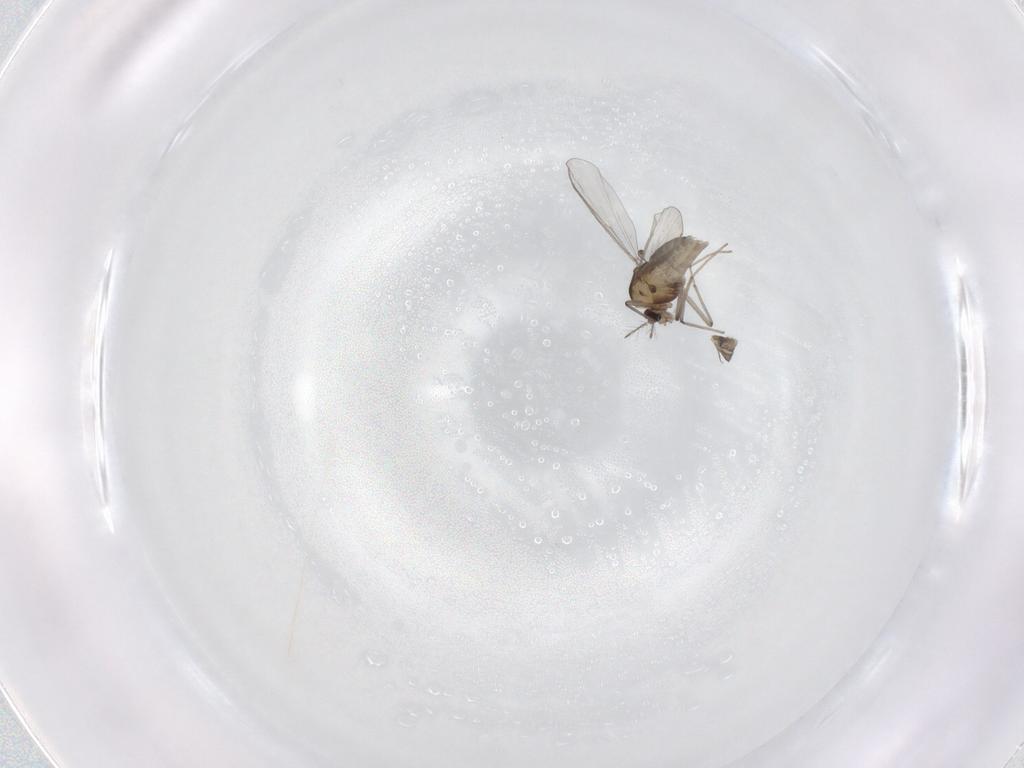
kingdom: Animalia
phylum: Arthropoda
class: Insecta
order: Diptera
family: Chironomidae
